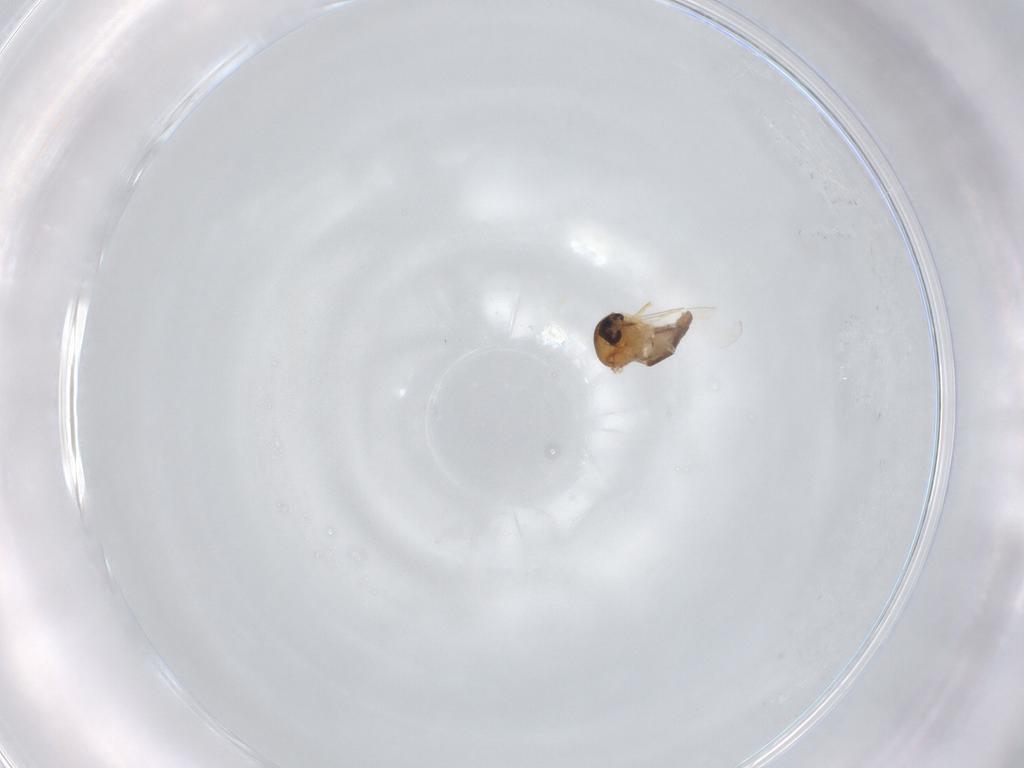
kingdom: Animalia
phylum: Arthropoda
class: Insecta
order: Diptera
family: Ceratopogonidae
